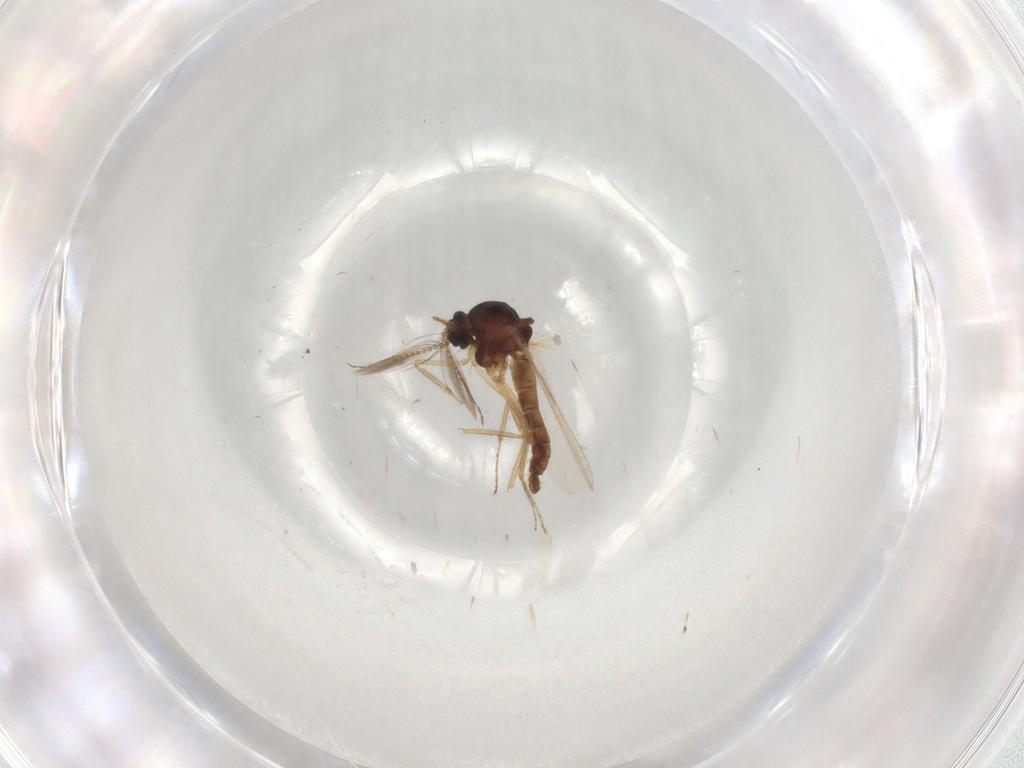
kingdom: Animalia
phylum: Arthropoda
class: Insecta
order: Diptera
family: Ceratopogonidae
